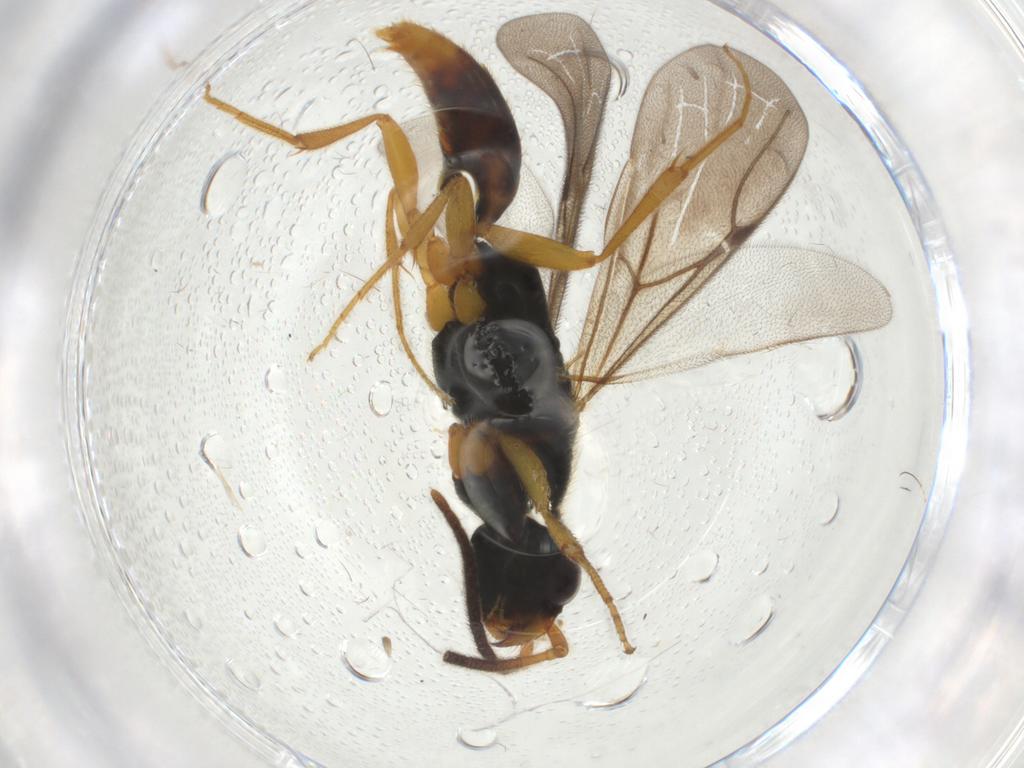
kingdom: Animalia
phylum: Arthropoda
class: Insecta
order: Hymenoptera
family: Bethylidae
